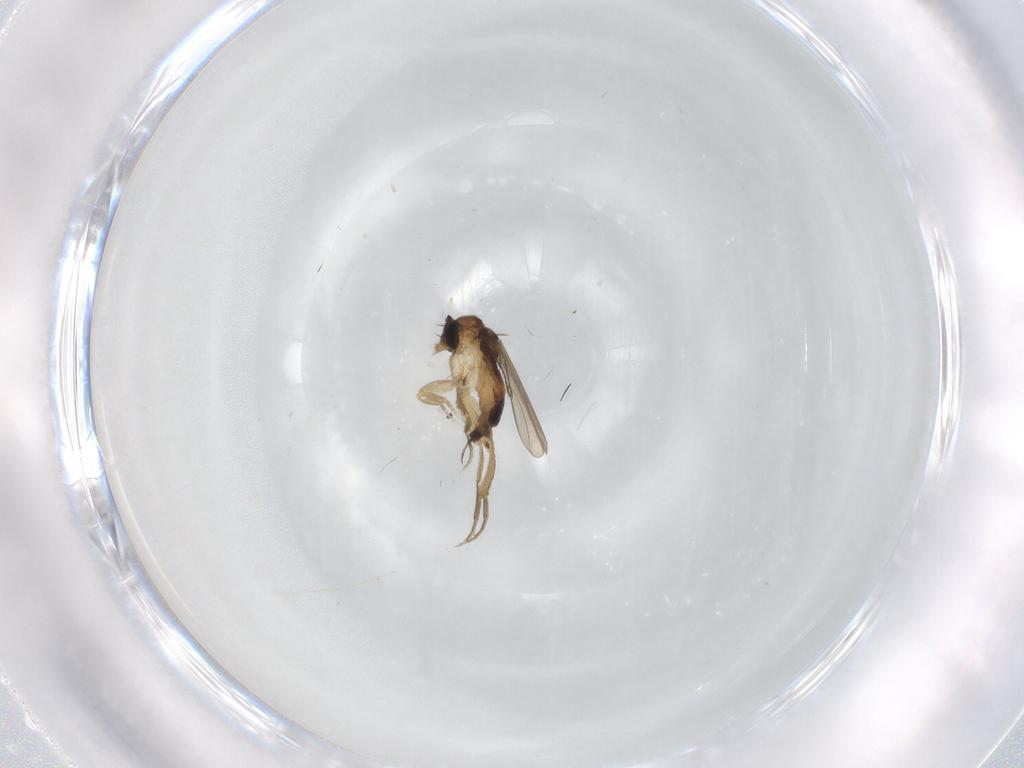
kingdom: Animalia
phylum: Arthropoda
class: Insecta
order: Diptera
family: Phoridae
